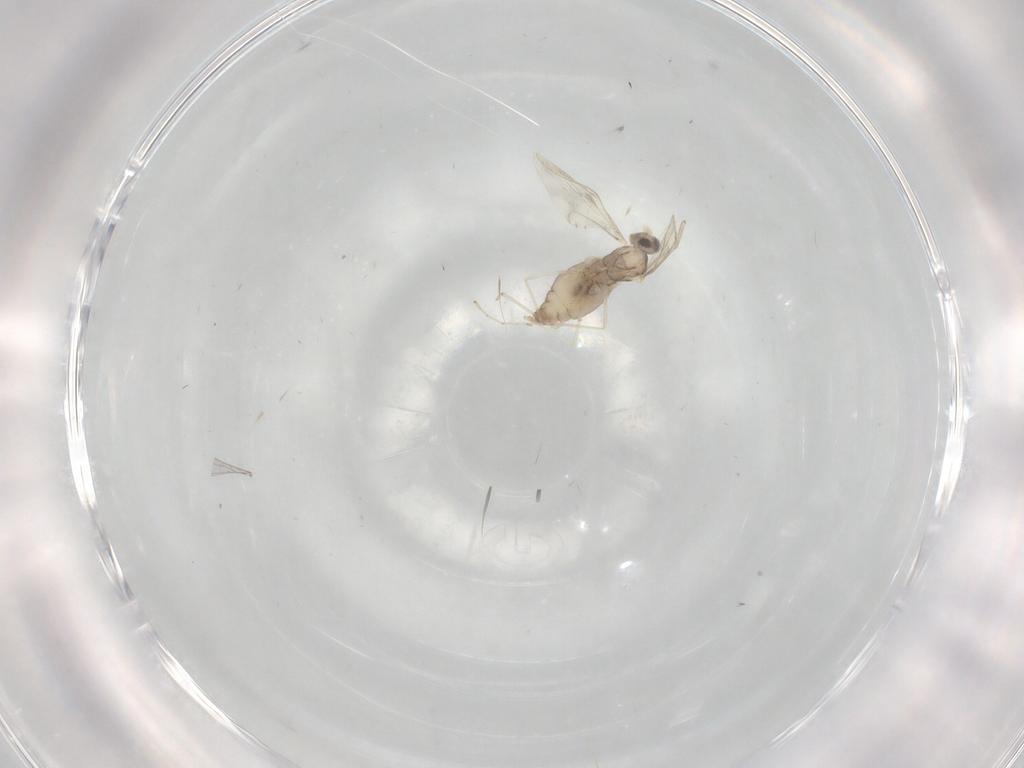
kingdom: Animalia
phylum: Arthropoda
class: Insecta
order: Diptera
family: Cecidomyiidae
